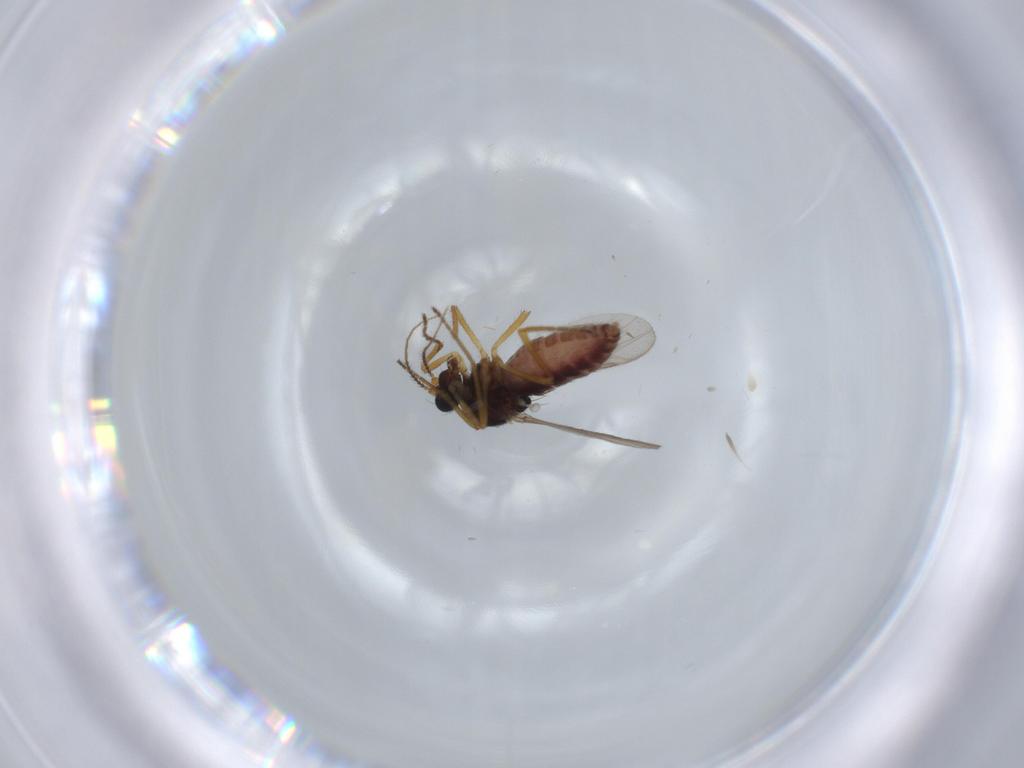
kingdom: Animalia
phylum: Arthropoda
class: Insecta
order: Diptera
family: Ceratopogonidae
